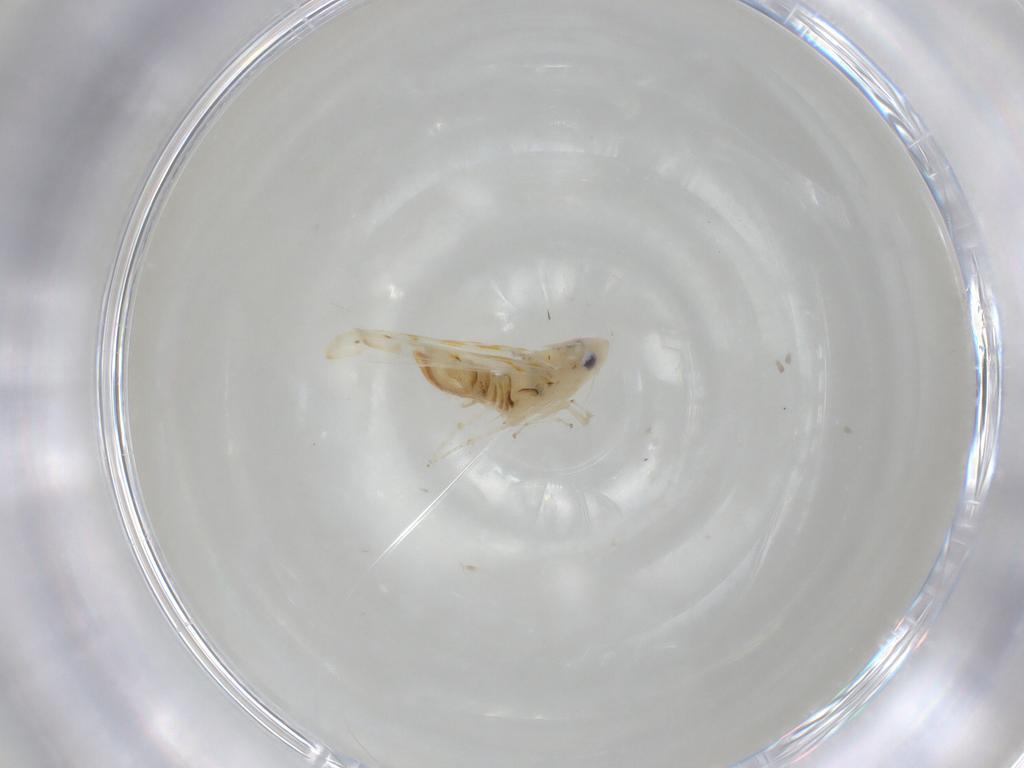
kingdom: Animalia
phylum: Arthropoda
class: Insecta
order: Hemiptera
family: Cicadellidae
